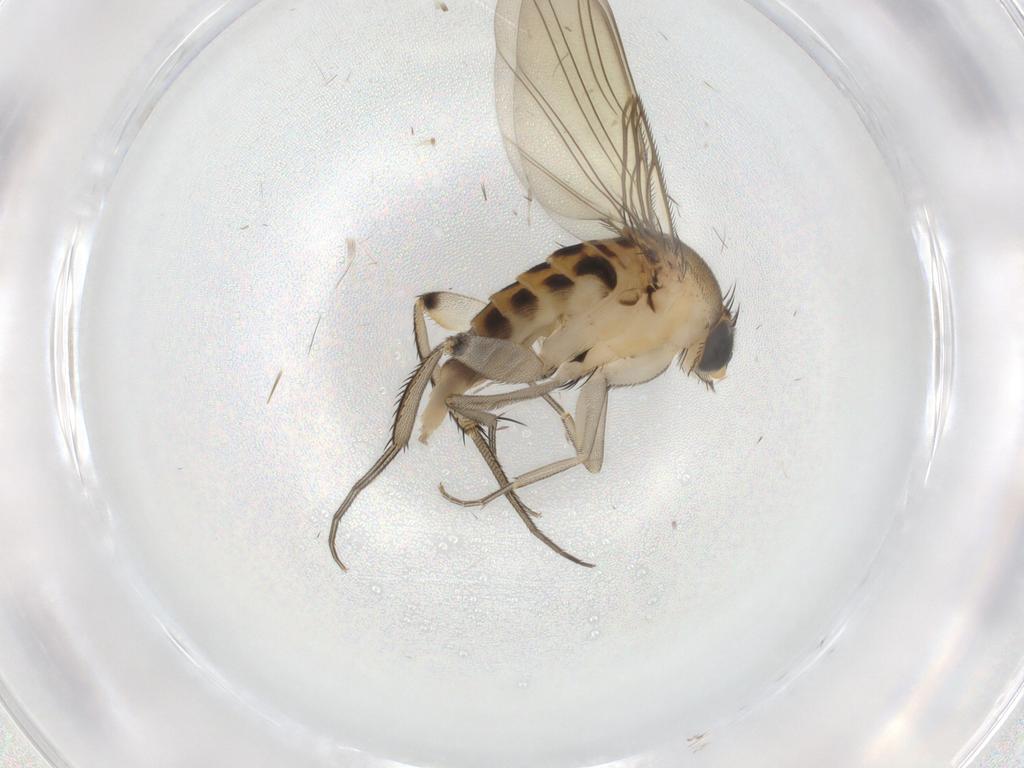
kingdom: Animalia
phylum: Arthropoda
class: Insecta
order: Diptera
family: Phoridae
